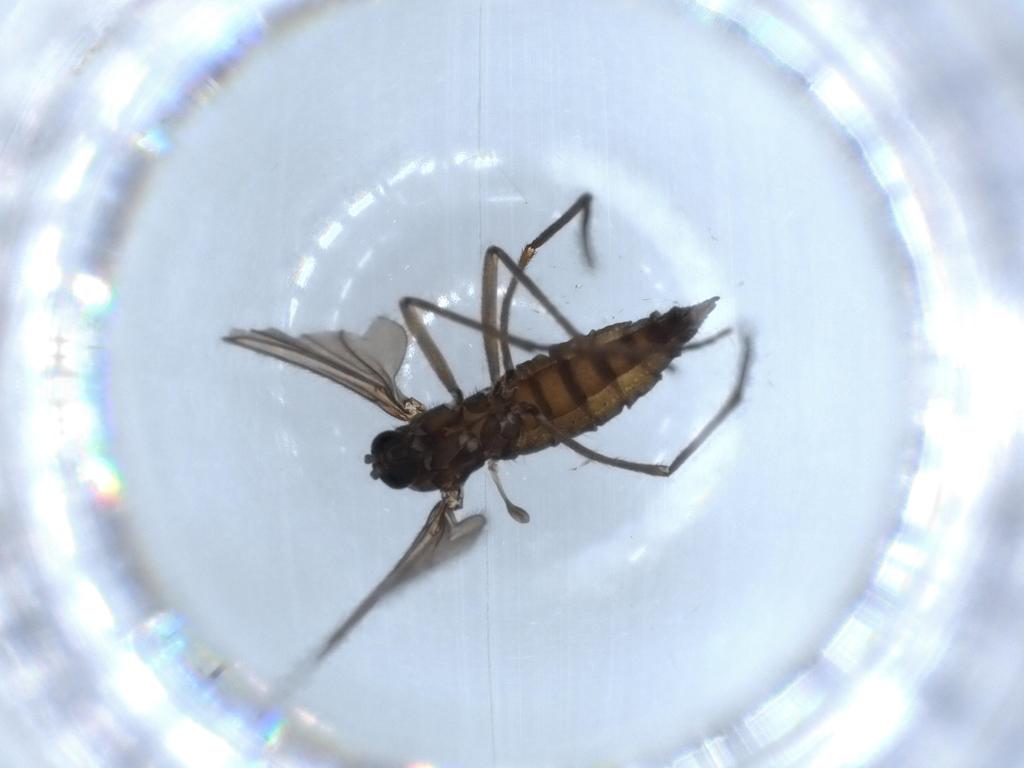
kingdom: Animalia
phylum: Arthropoda
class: Insecta
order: Diptera
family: Sciaridae
